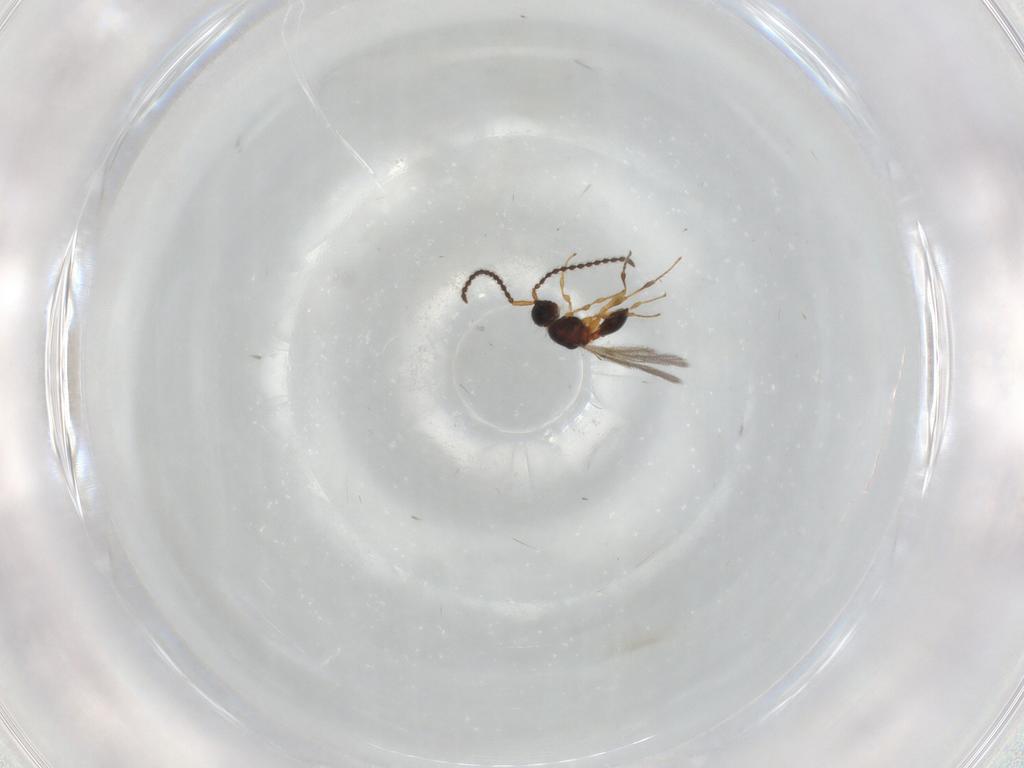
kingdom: Animalia
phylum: Arthropoda
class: Insecta
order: Hymenoptera
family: Diapriidae
